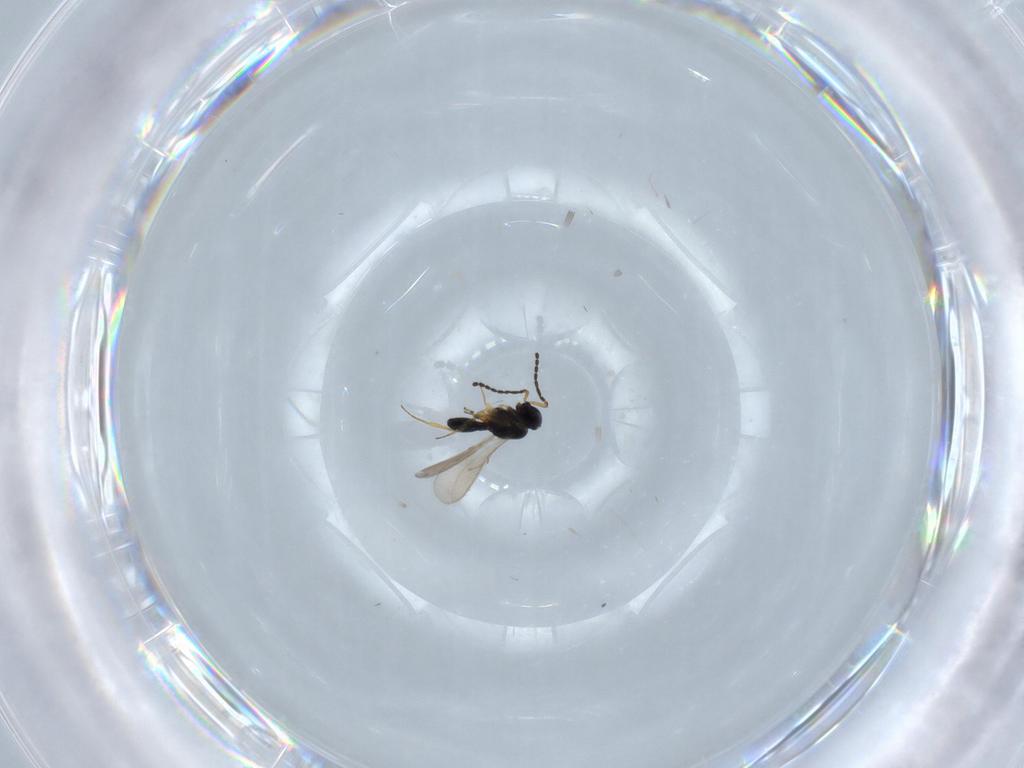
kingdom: Animalia
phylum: Arthropoda
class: Insecta
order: Hymenoptera
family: Scelionidae
